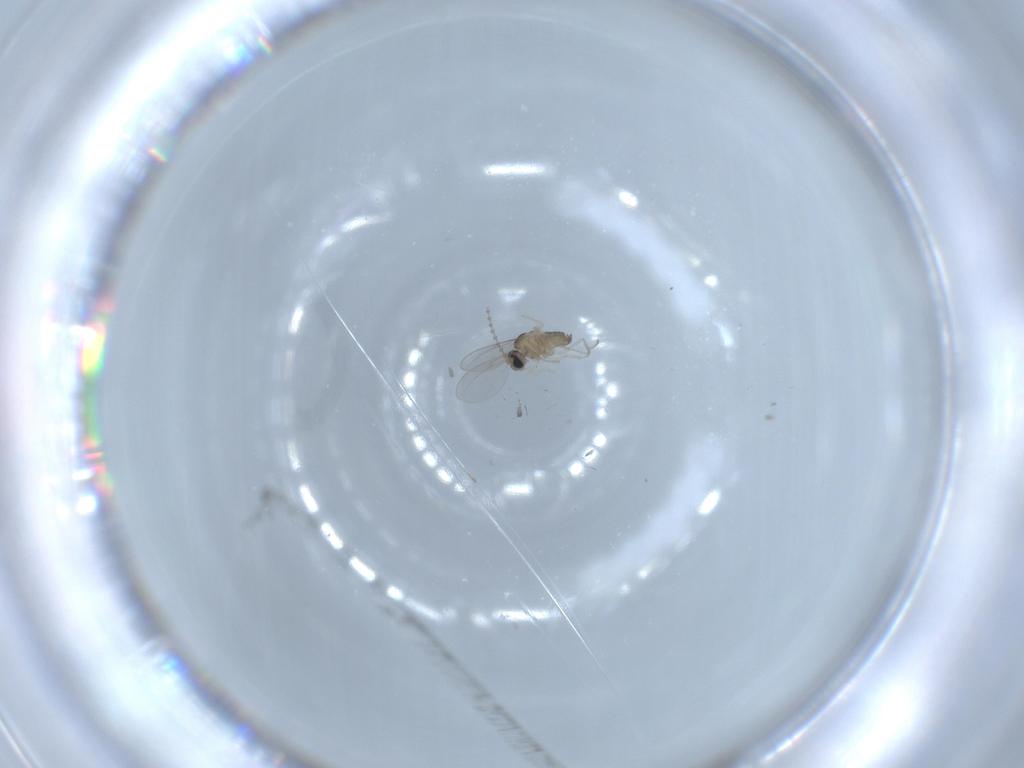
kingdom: Animalia
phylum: Arthropoda
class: Insecta
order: Diptera
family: Cecidomyiidae
